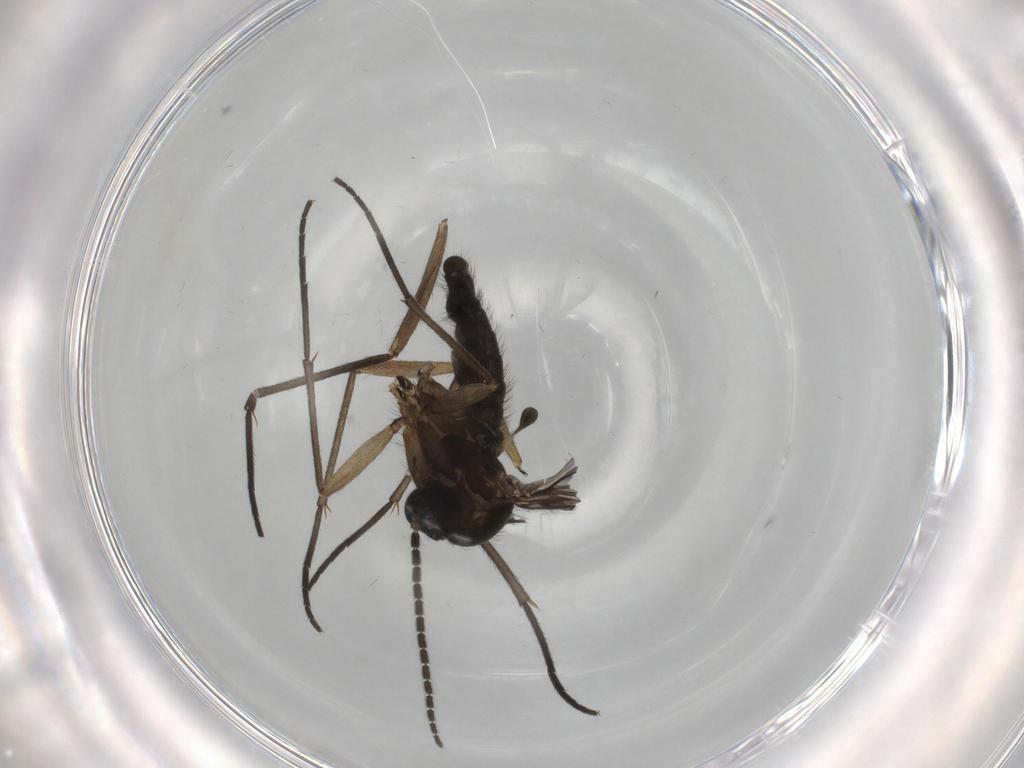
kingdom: Animalia
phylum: Arthropoda
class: Insecta
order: Diptera
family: Sciaridae
